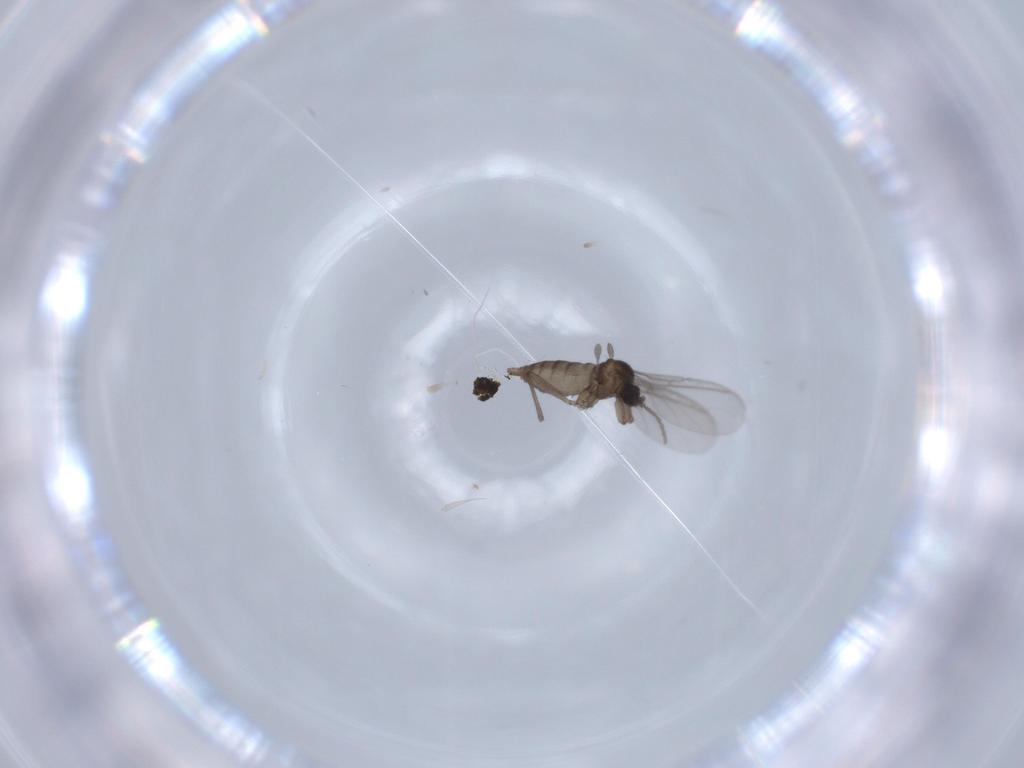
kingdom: Animalia
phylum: Arthropoda
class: Insecta
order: Diptera
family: Sciaridae
